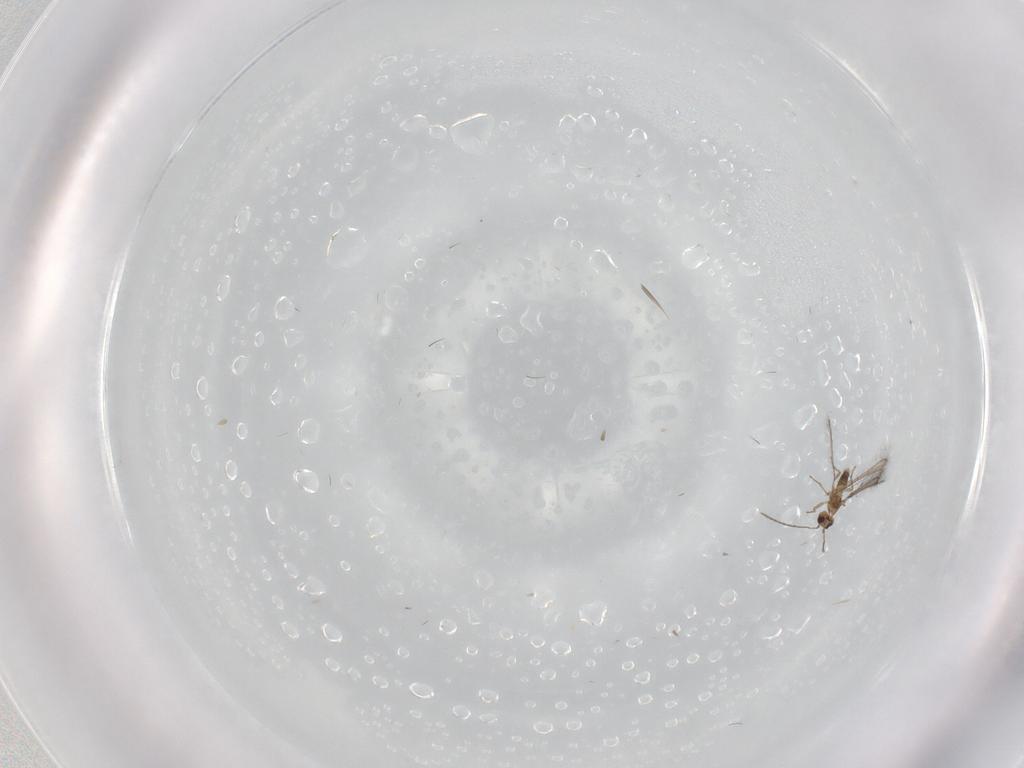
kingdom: Animalia
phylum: Arthropoda
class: Insecta
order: Hymenoptera
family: Mymaridae
